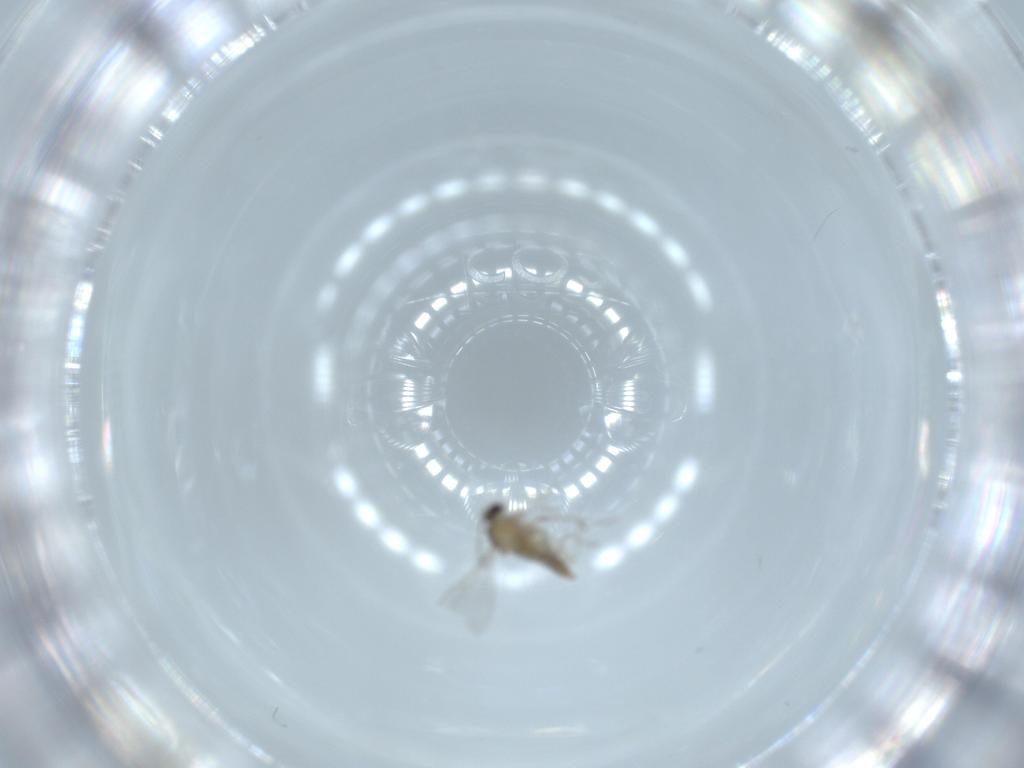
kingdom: Animalia
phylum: Arthropoda
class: Insecta
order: Diptera
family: Cecidomyiidae
